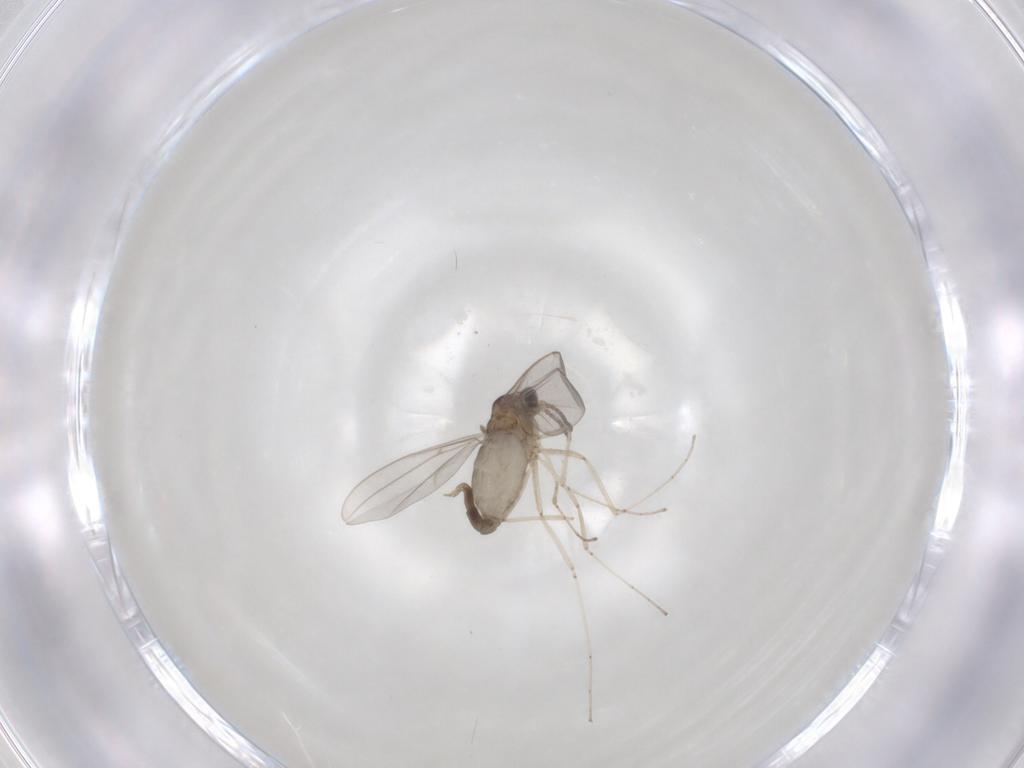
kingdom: Animalia
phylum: Arthropoda
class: Insecta
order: Diptera
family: Cecidomyiidae
